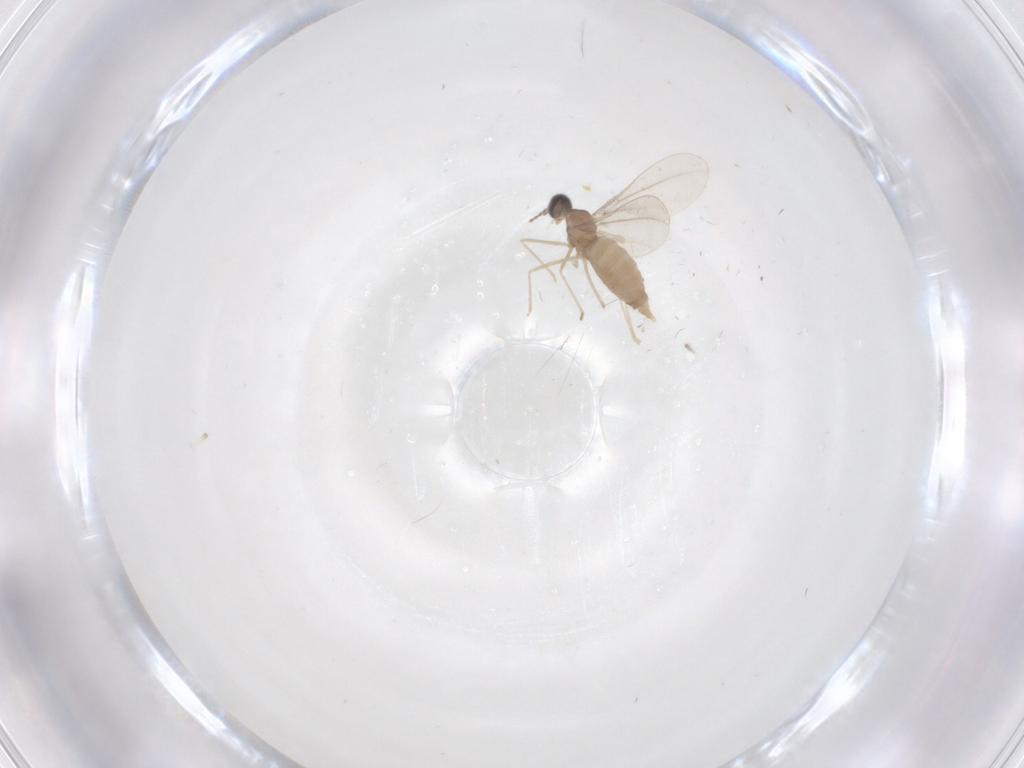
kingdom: Animalia
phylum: Arthropoda
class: Insecta
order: Diptera
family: Cecidomyiidae
